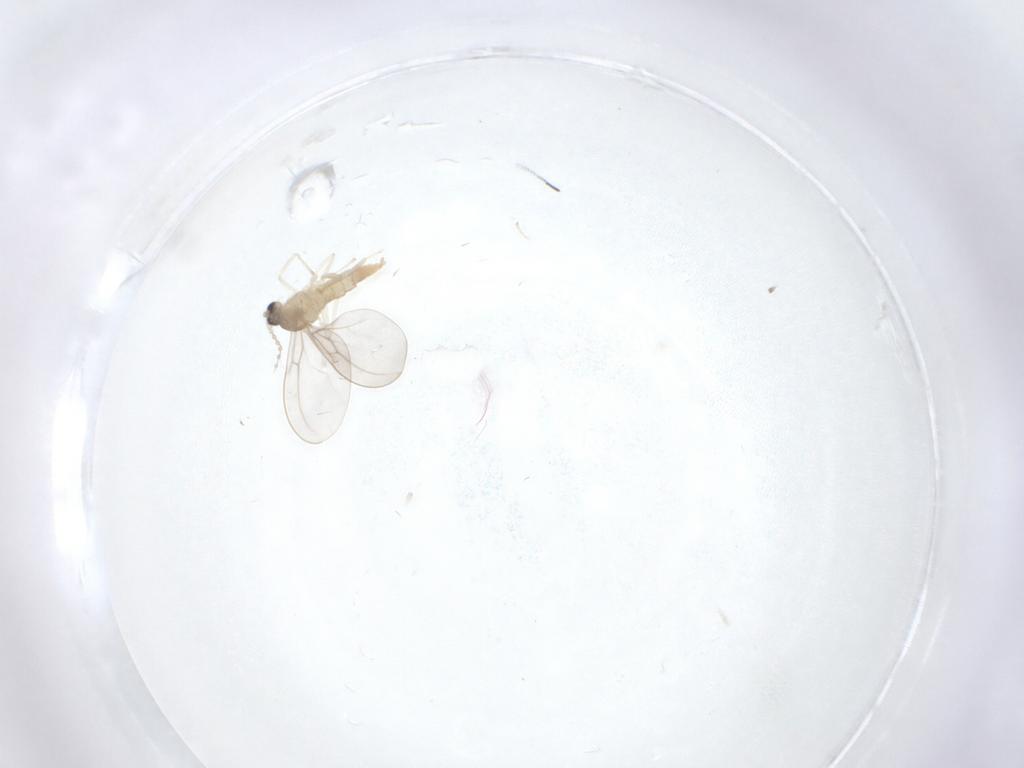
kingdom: Animalia
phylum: Arthropoda
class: Insecta
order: Diptera
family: Cecidomyiidae
